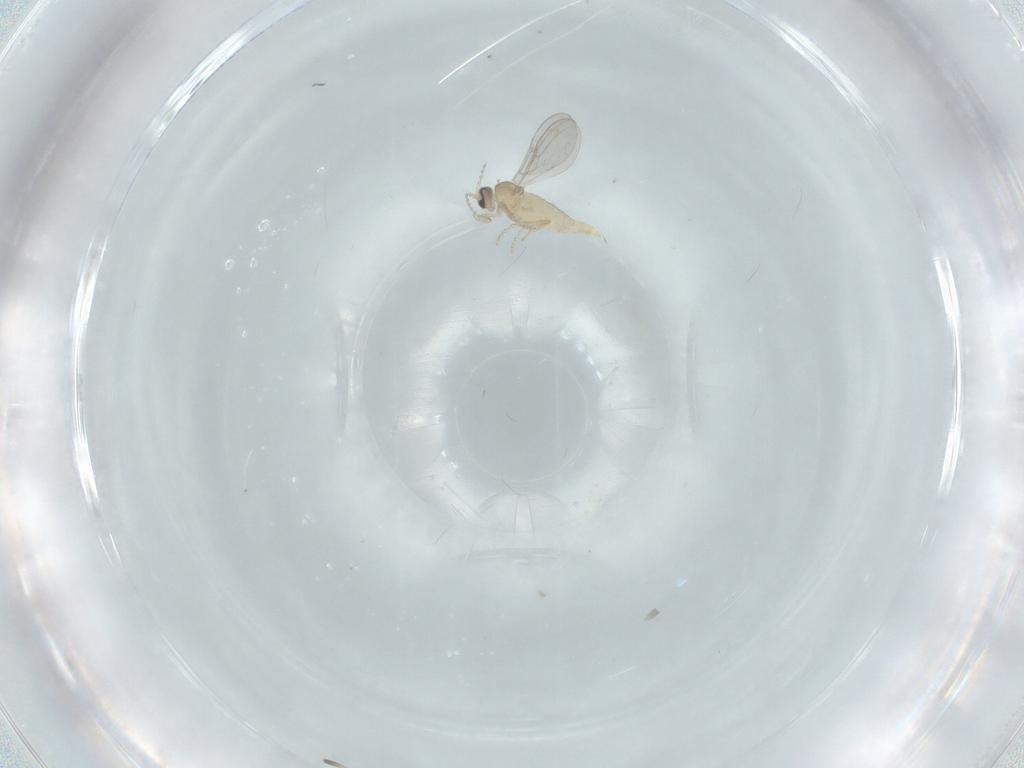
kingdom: Animalia
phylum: Arthropoda
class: Insecta
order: Diptera
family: Cecidomyiidae
